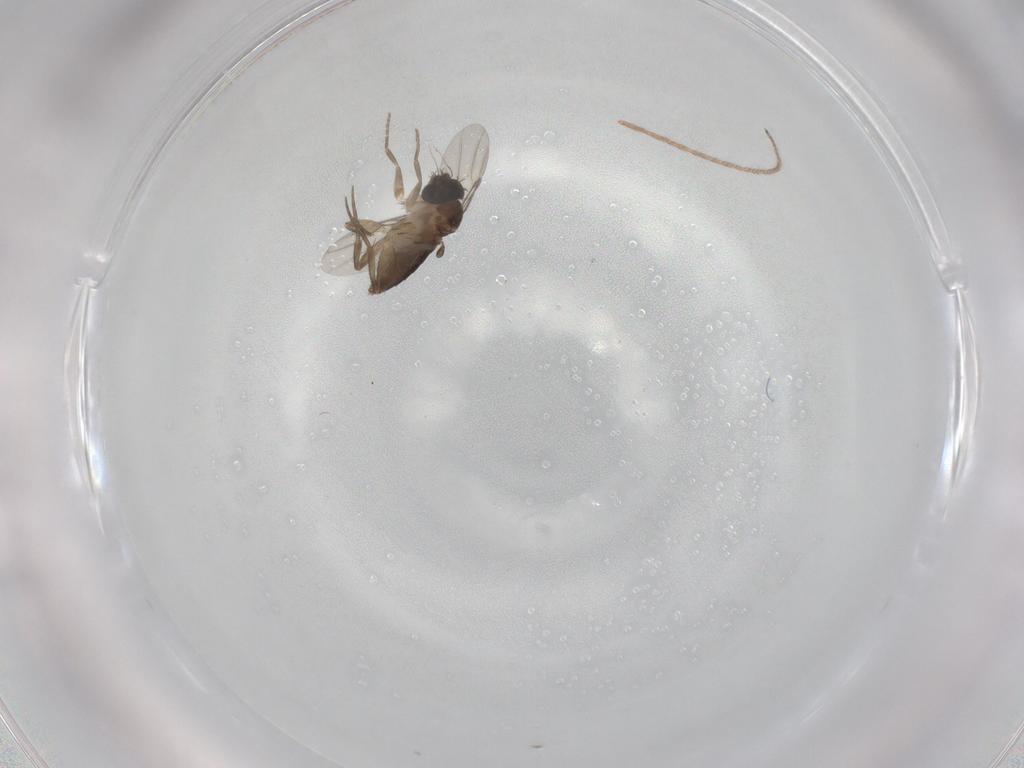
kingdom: Animalia
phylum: Arthropoda
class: Insecta
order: Diptera
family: Phoridae
